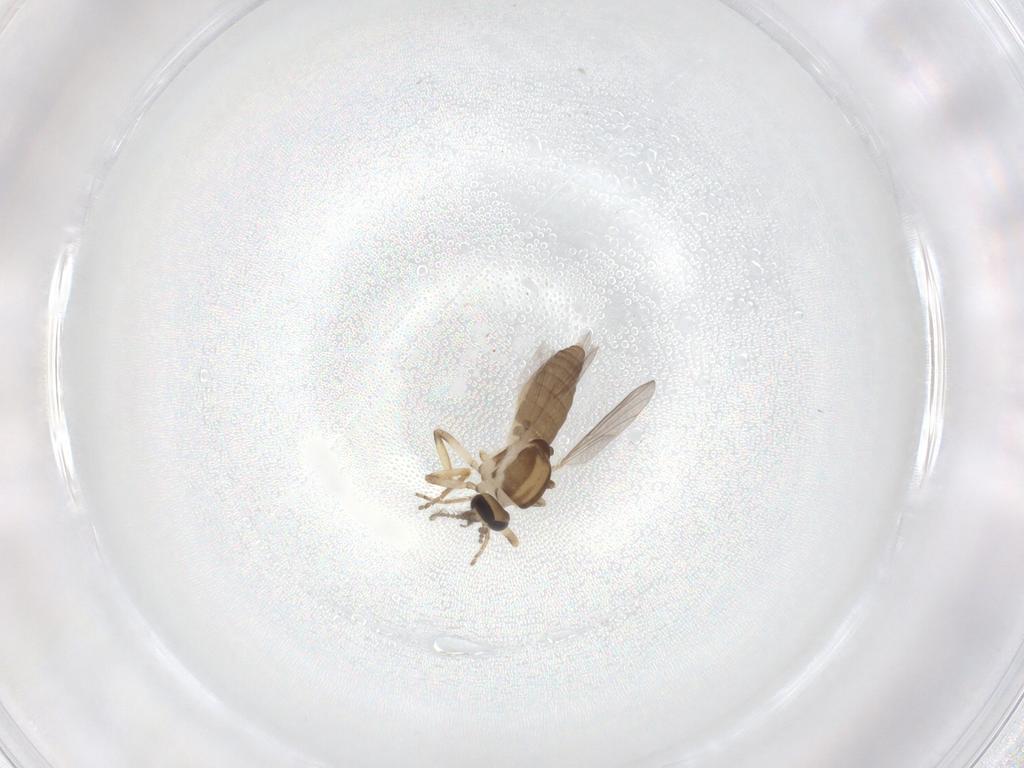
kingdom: Animalia
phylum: Arthropoda
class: Insecta
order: Diptera
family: Ceratopogonidae
